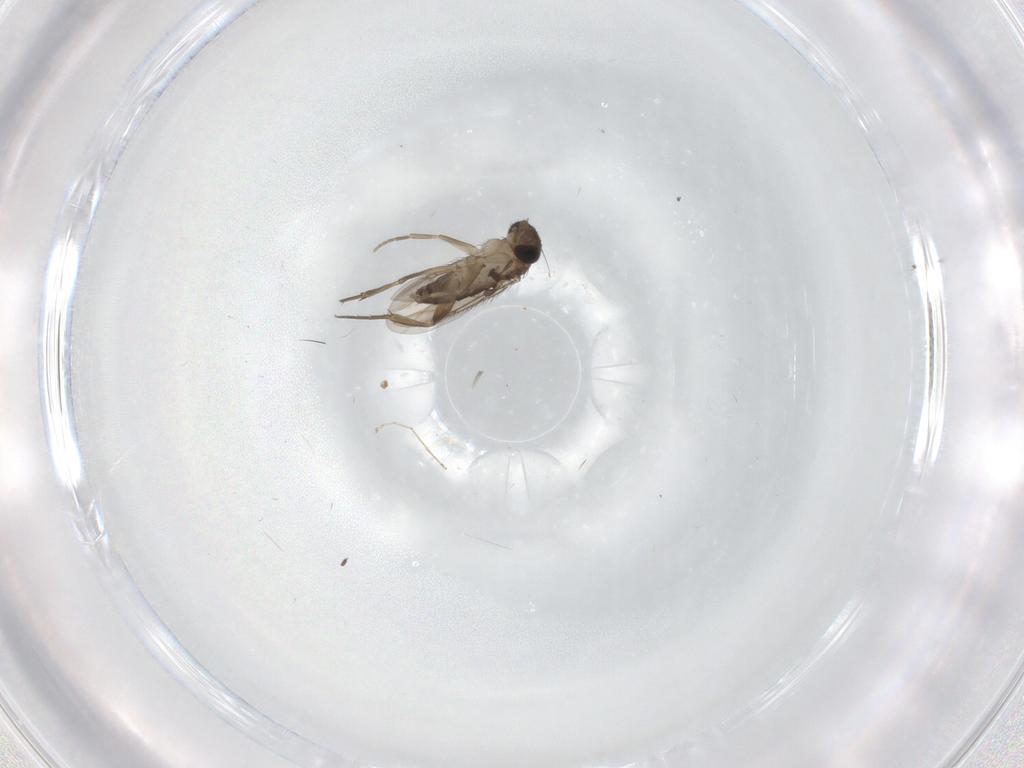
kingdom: Animalia
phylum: Arthropoda
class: Insecta
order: Diptera
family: Phoridae
